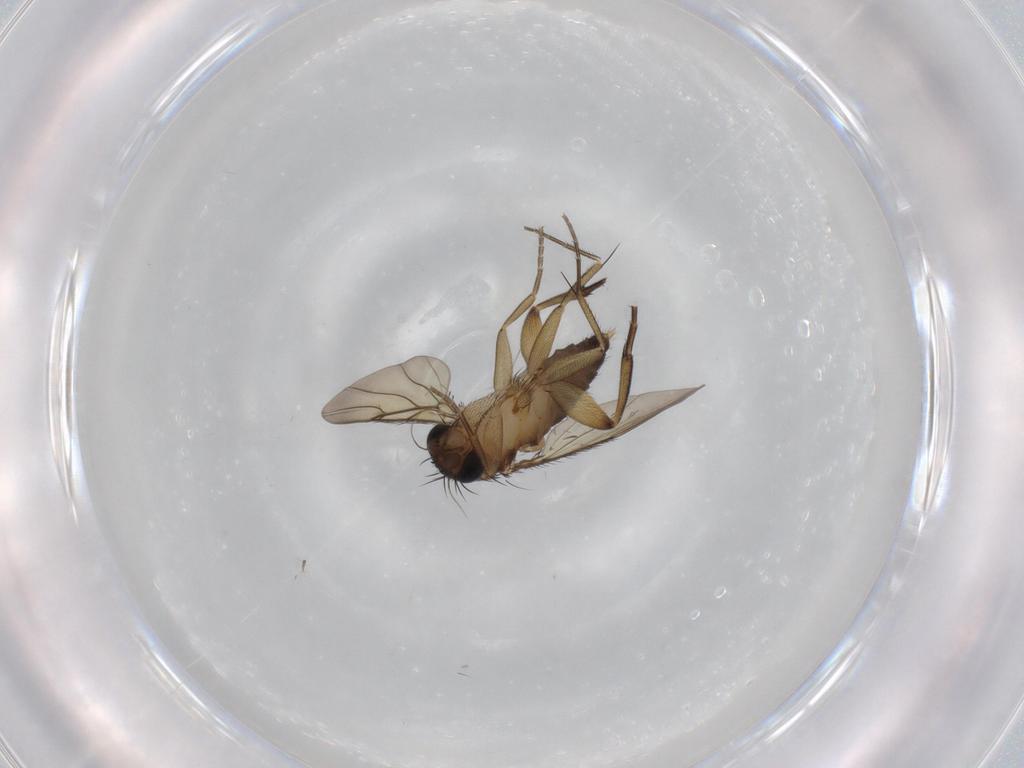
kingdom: Animalia
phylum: Arthropoda
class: Insecta
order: Diptera
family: Phoridae
